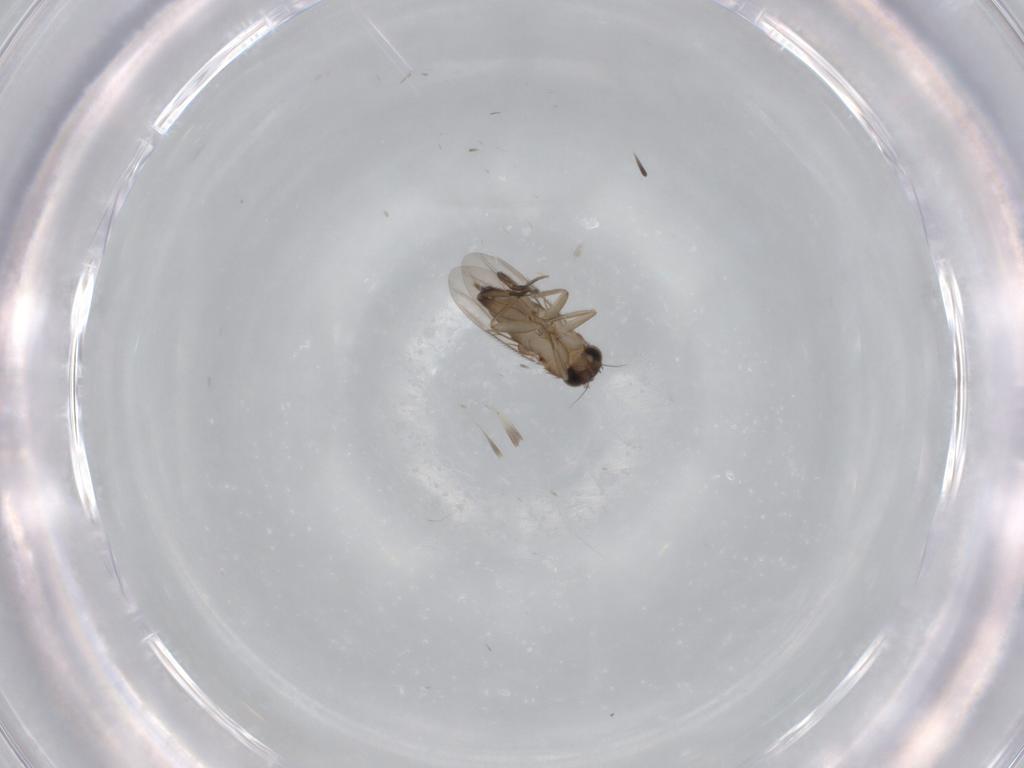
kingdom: Animalia
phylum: Arthropoda
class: Insecta
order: Diptera
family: Phoridae
